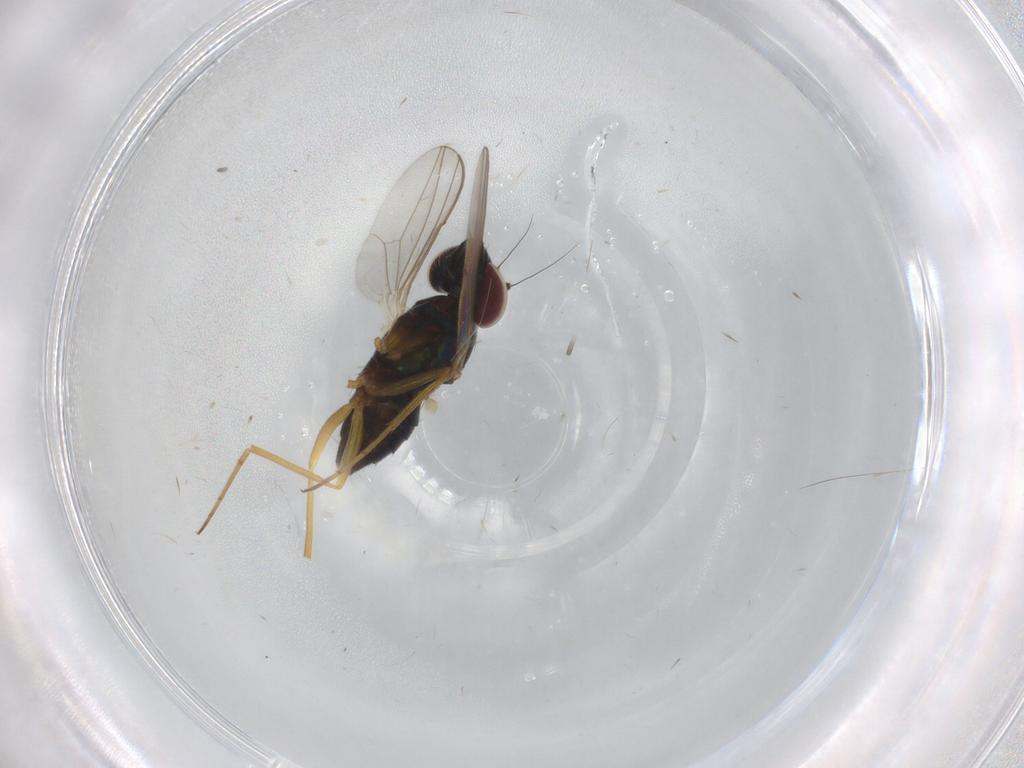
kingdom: Animalia
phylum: Arthropoda
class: Insecta
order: Diptera
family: Dolichopodidae
